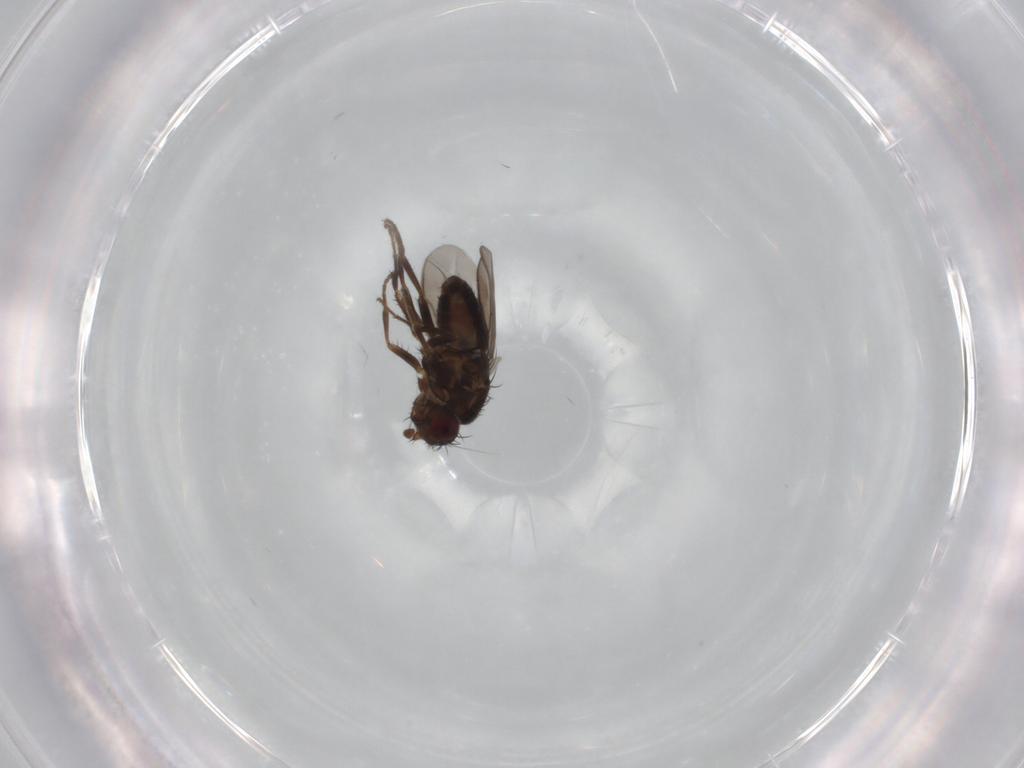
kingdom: Animalia
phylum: Arthropoda
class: Insecta
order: Diptera
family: Sphaeroceridae
